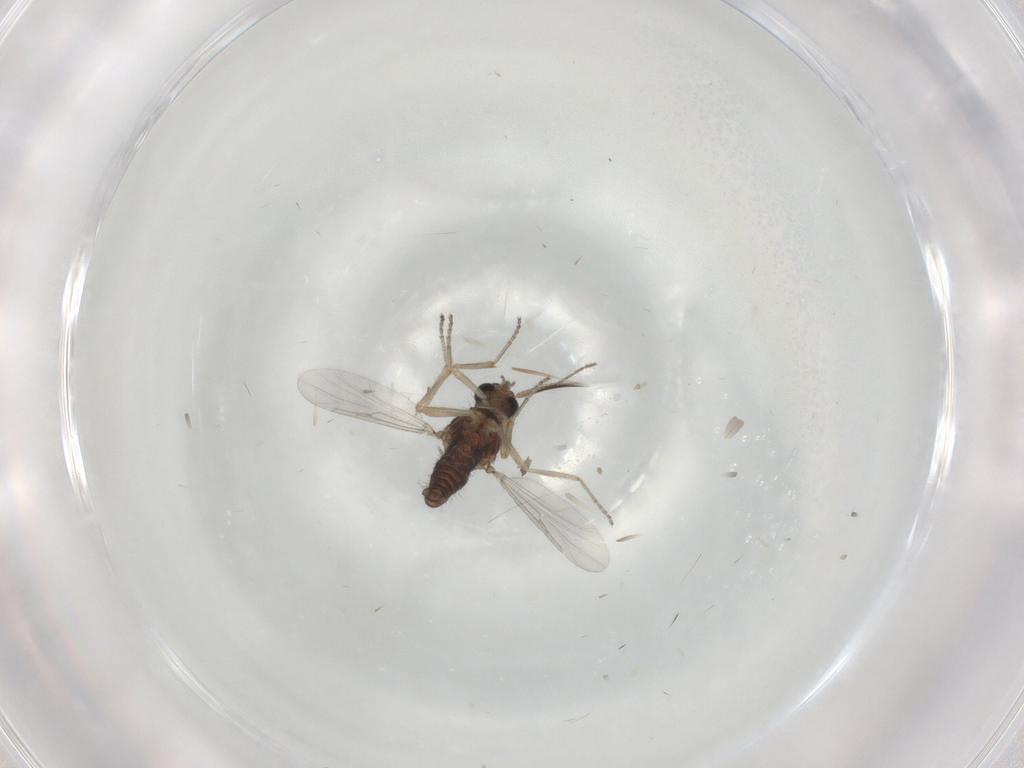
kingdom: Animalia
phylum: Arthropoda
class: Insecta
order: Diptera
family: Ceratopogonidae
